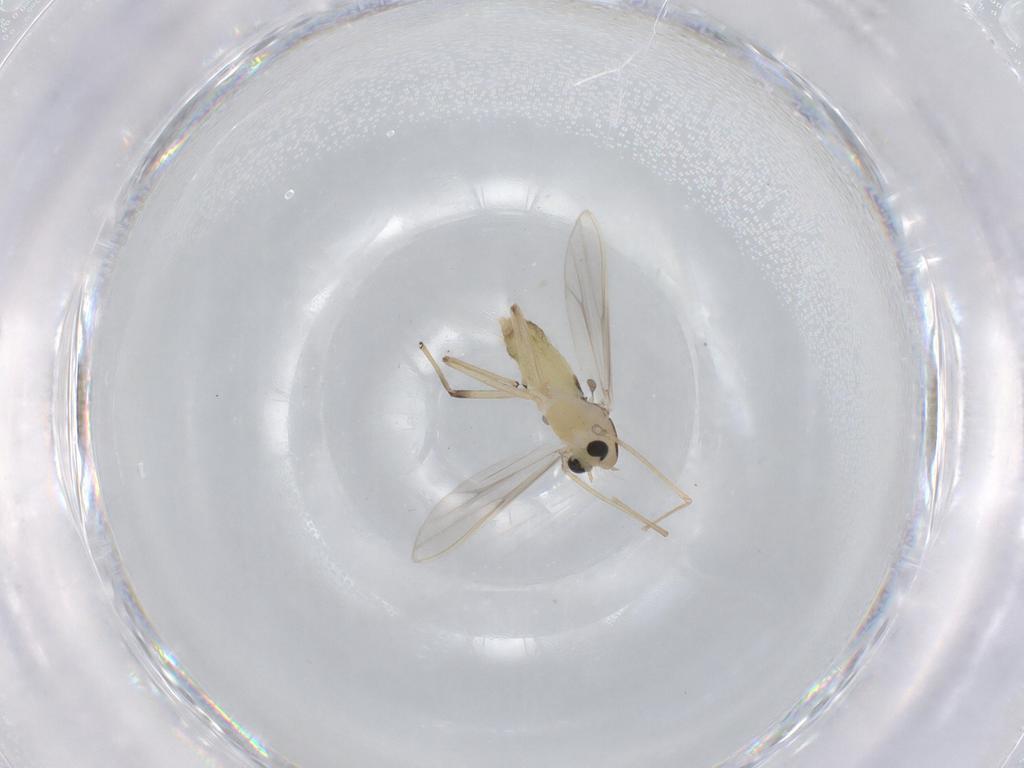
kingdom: Animalia
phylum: Arthropoda
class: Insecta
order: Diptera
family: Chironomidae
